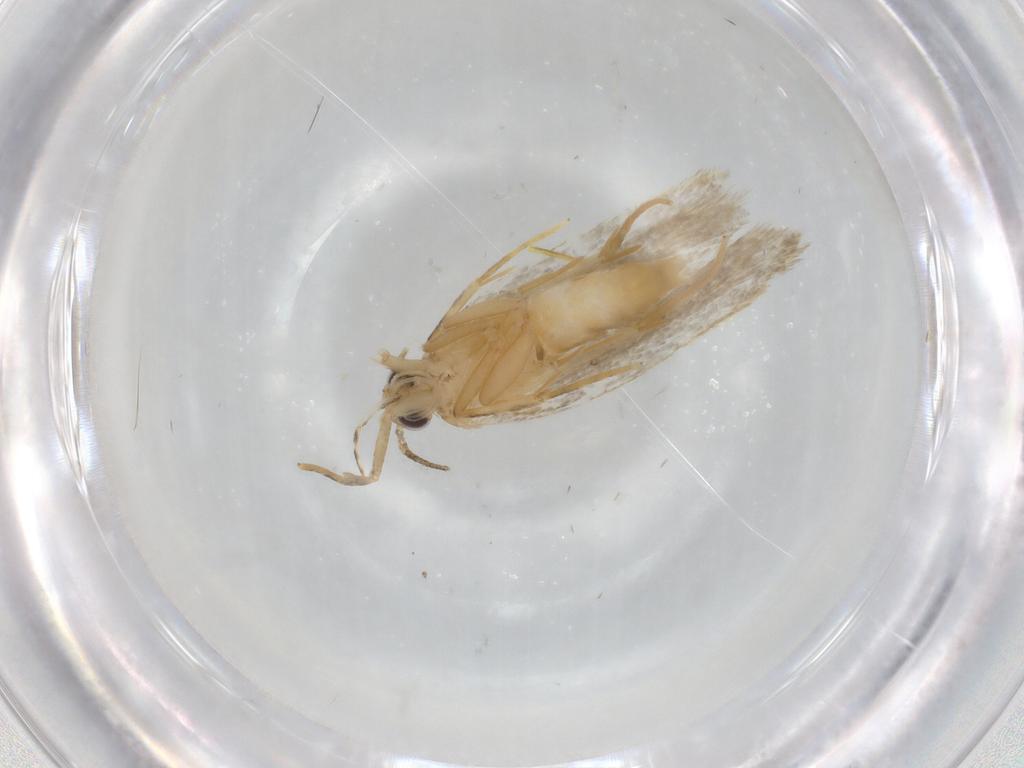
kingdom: Animalia
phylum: Arthropoda
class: Insecta
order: Lepidoptera
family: Autostichidae
